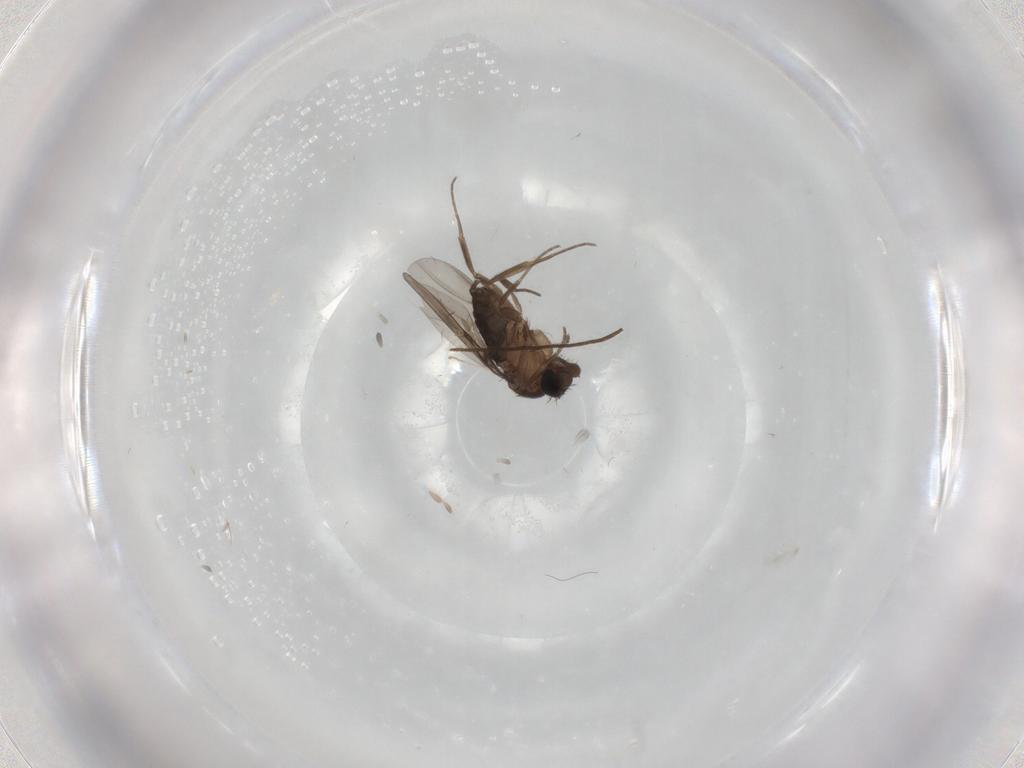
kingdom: Animalia
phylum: Arthropoda
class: Insecta
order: Diptera
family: Phoridae
